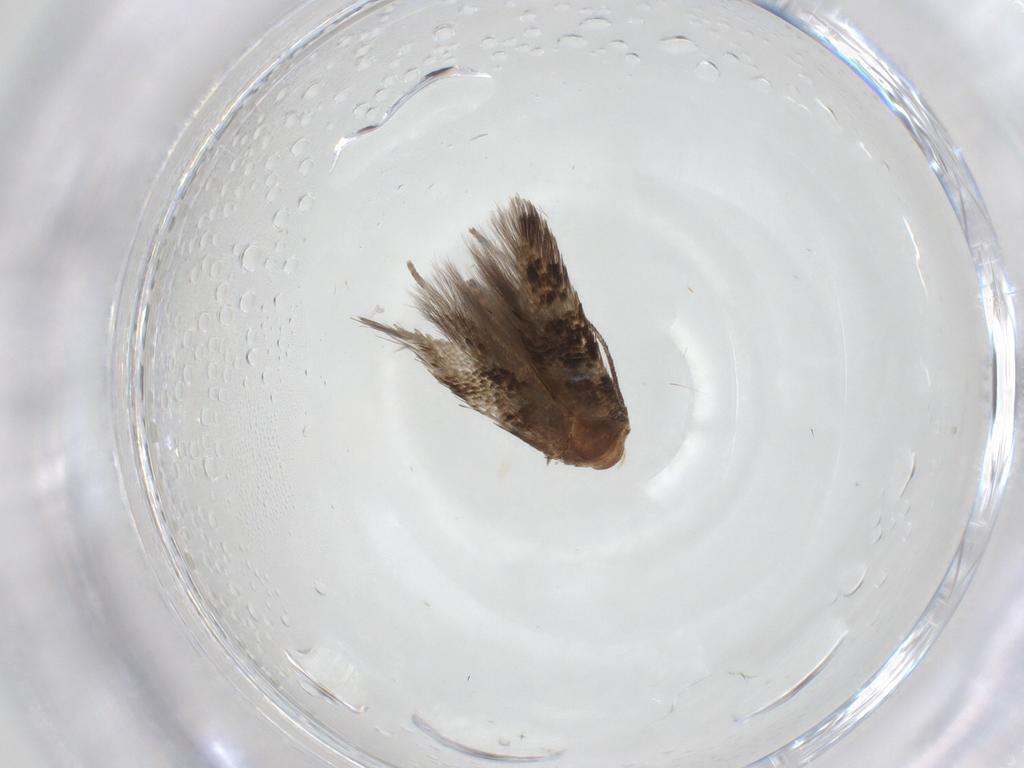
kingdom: Animalia
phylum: Arthropoda
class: Insecta
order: Lepidoptera
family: Momphidae
